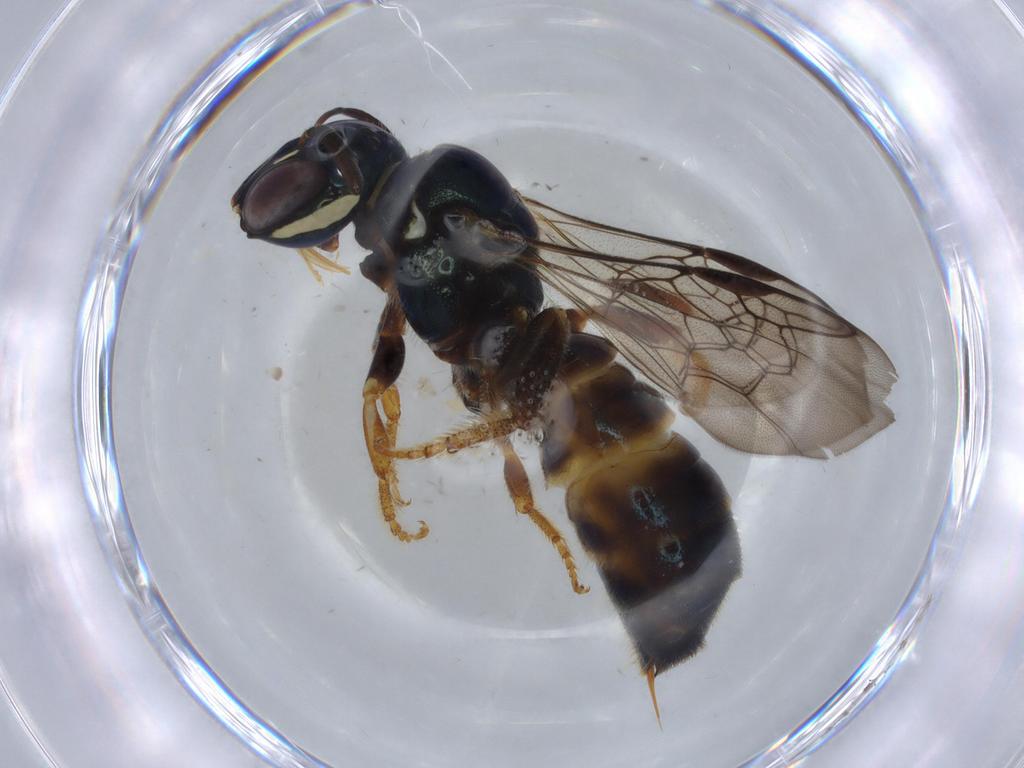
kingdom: Animalia
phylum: Arthropoda
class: Insecta
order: Hymenoptera
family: Apidae
